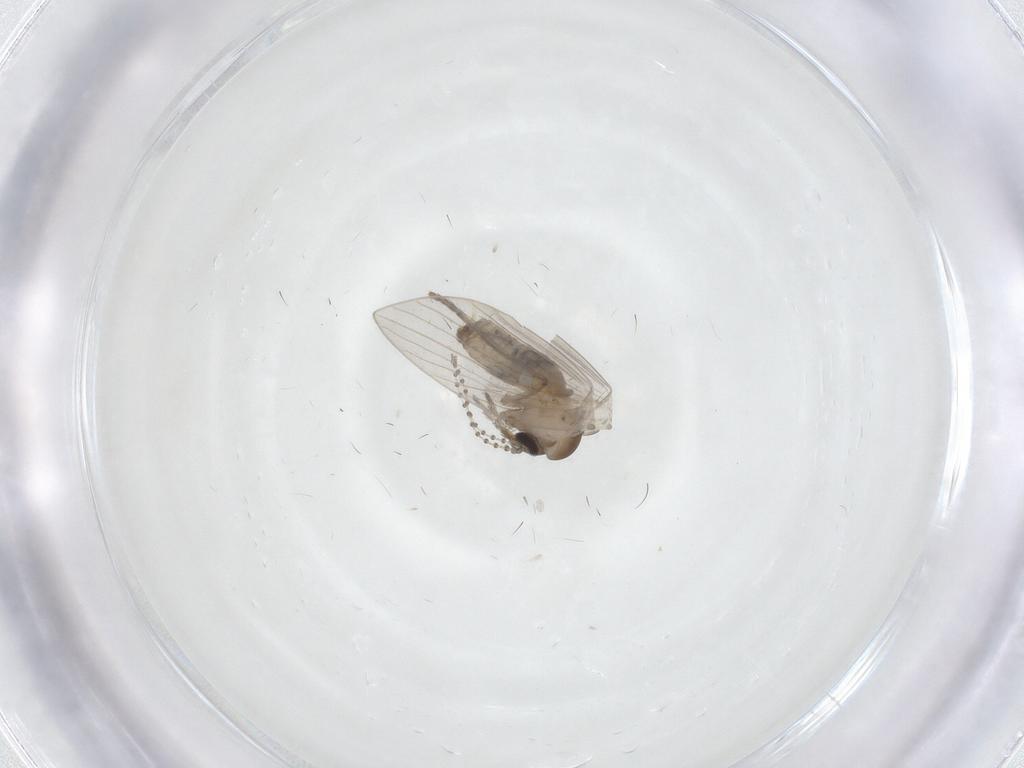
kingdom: Animalia
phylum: Arthropoda
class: Insecta
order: Diptera
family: Psychodidae
